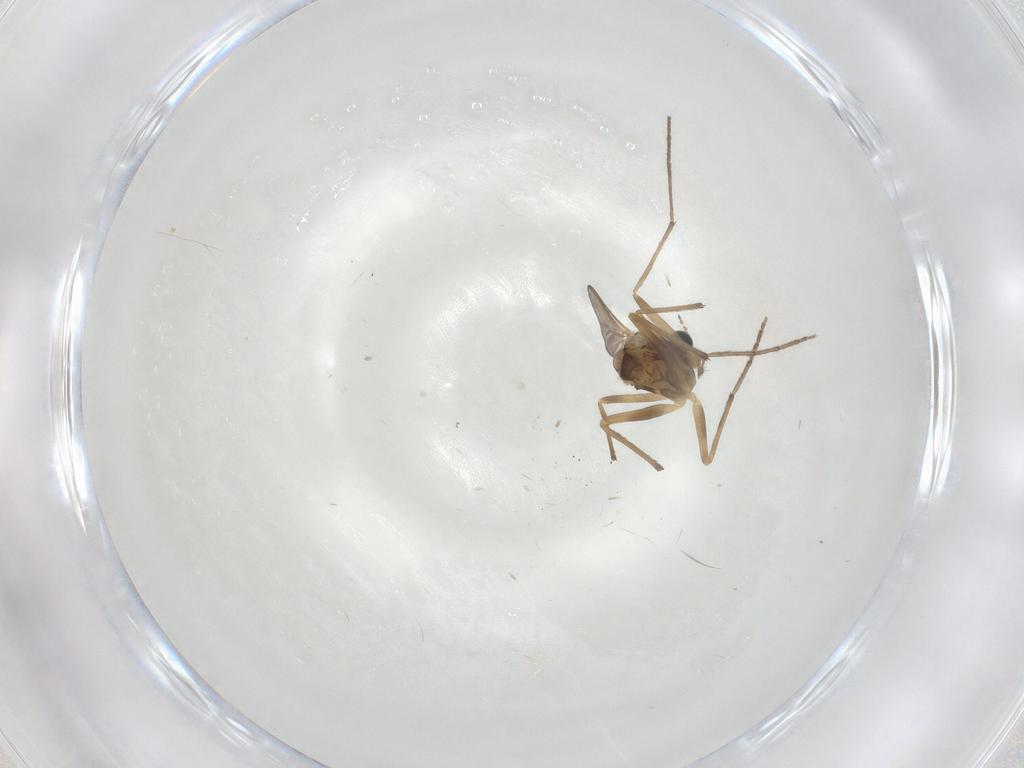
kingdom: Animalia
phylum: Arthropoda
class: Insecta
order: Diptera
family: Chironomidae
